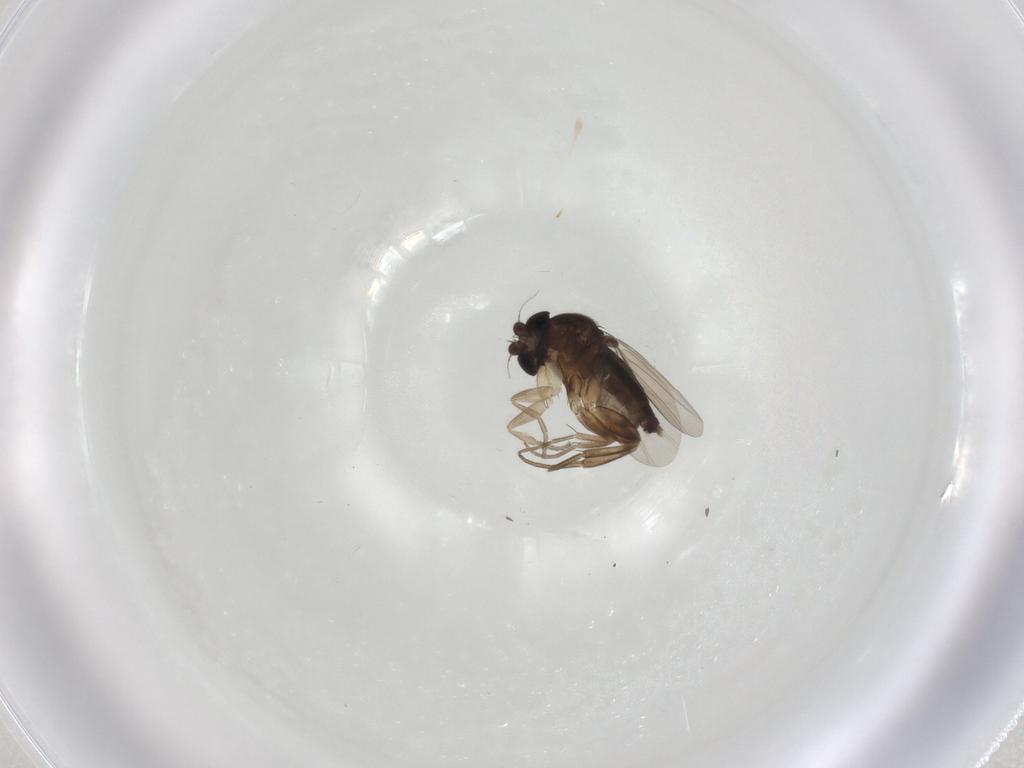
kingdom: Animalia
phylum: Arthropoda
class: Insecta
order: Diptera
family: Phoridae
